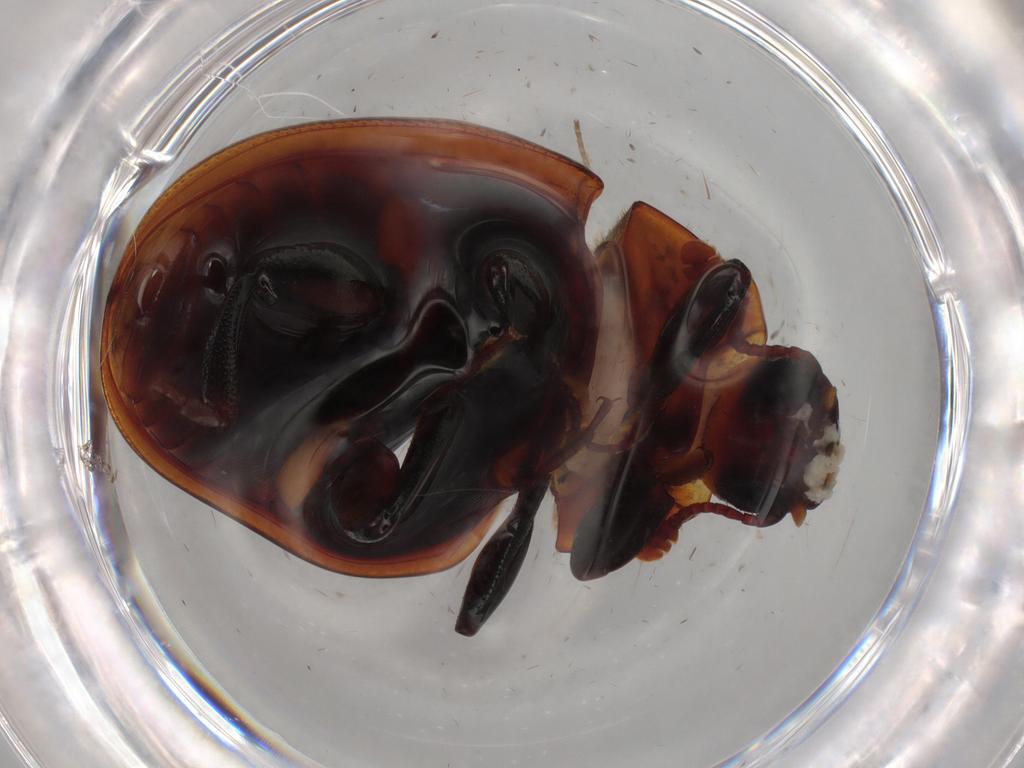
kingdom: Animalia
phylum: Arthropoda
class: Insecta
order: Coleoptera
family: Zopheridae
